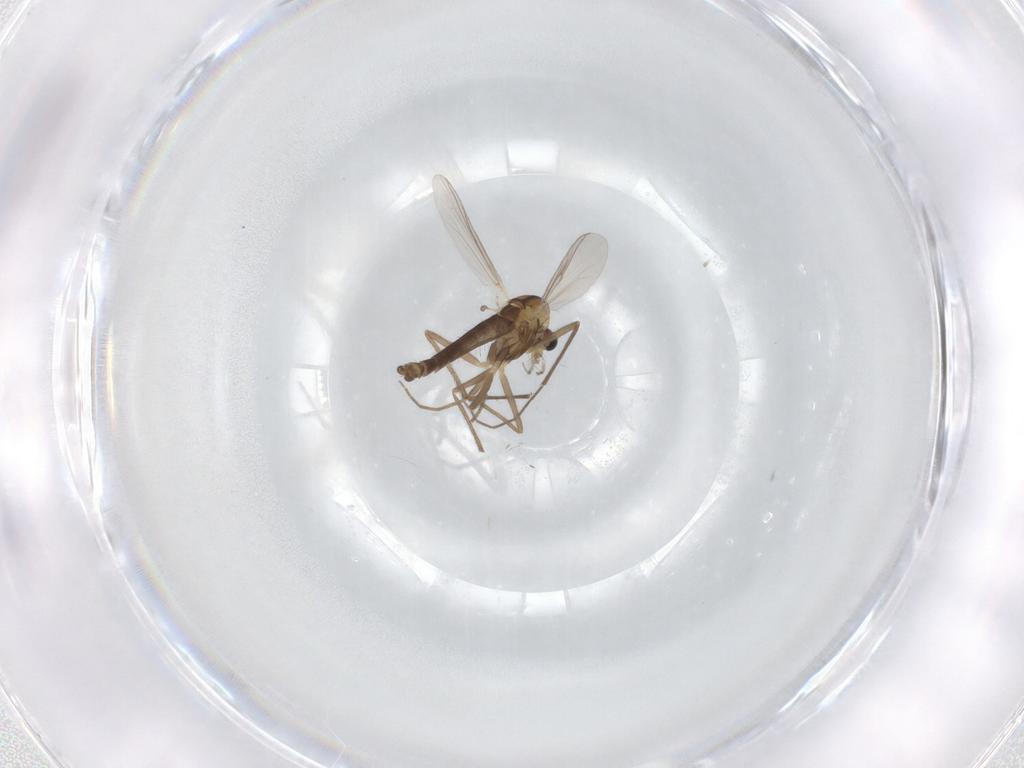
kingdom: Animalia
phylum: Arthropoda
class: Insecta
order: Diptera
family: Chironomidae
